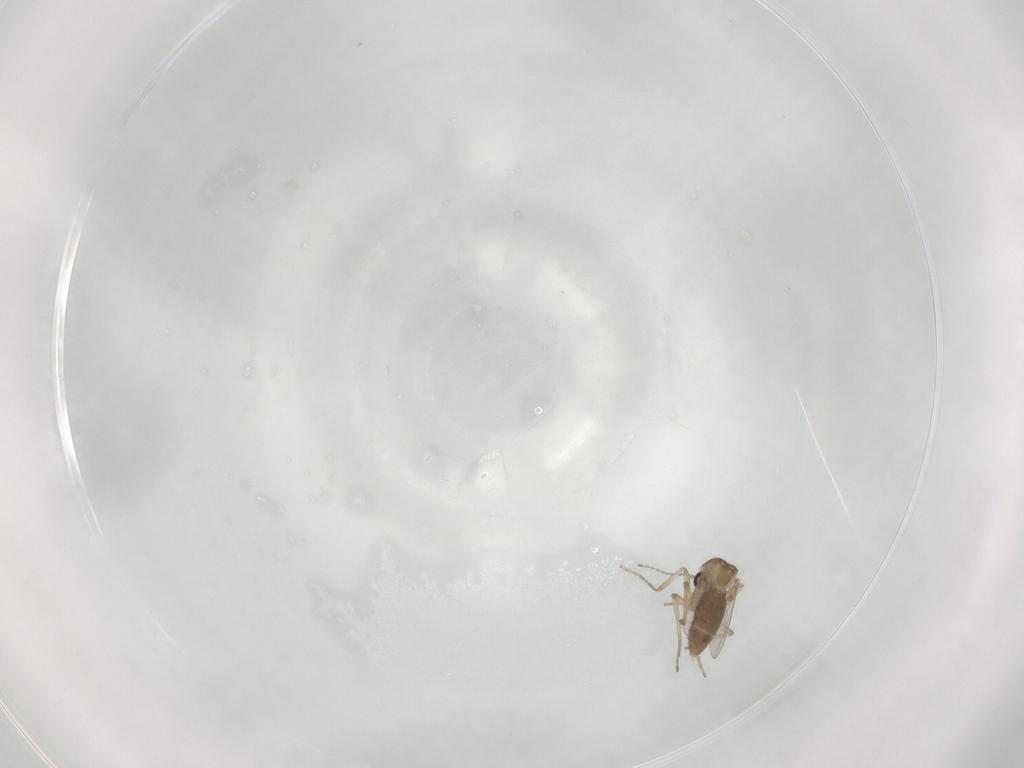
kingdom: Animalia
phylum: Arthropoda
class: Insecta
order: Diptera
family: Ceratopogonidae
